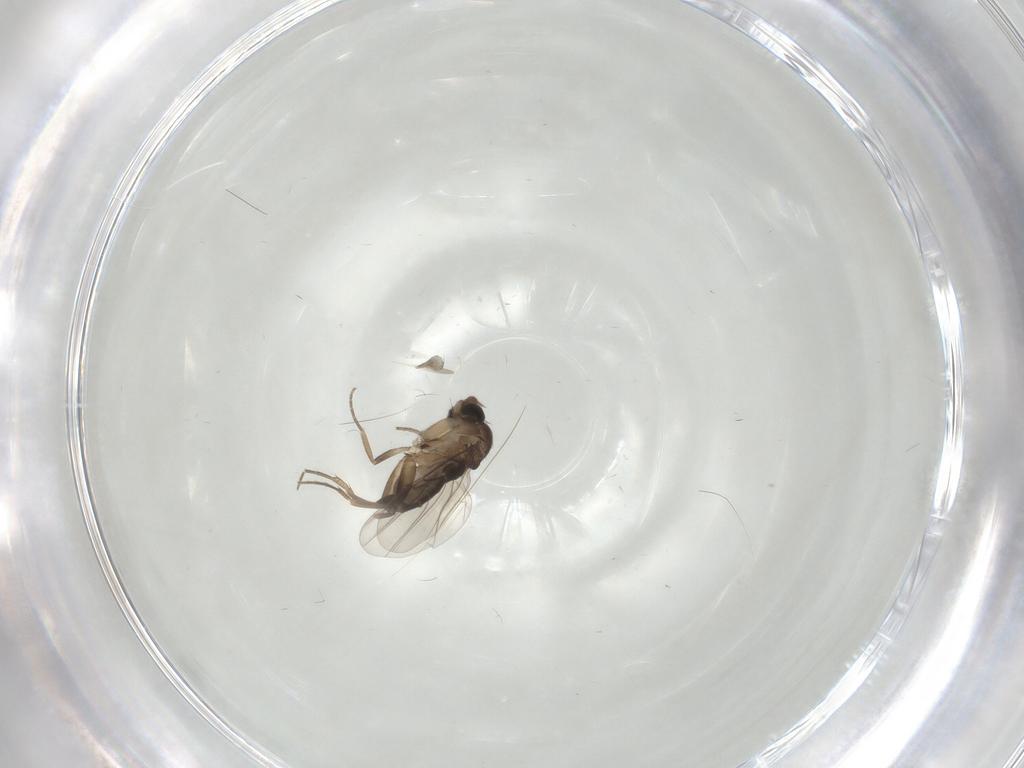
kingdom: Animalia
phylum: Arthropoda
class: Insecta
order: Diptera
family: Phoridae
